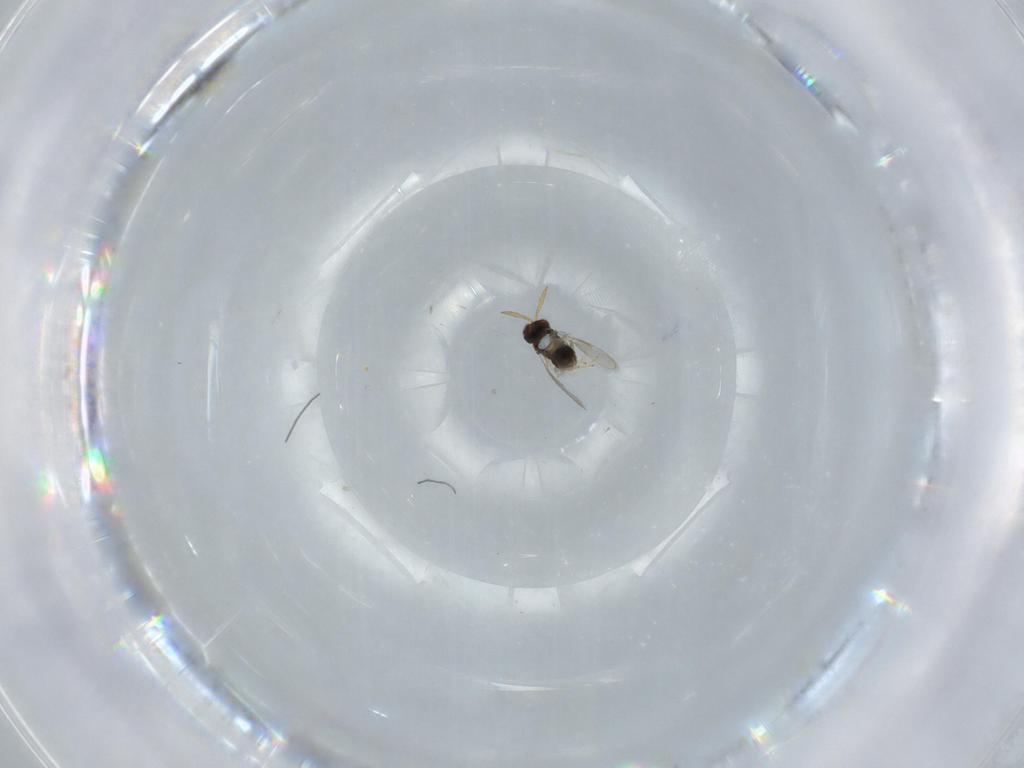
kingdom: Animalia
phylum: Arthropoda
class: Insecta
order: Hymenoptera
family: Aphelinidae
